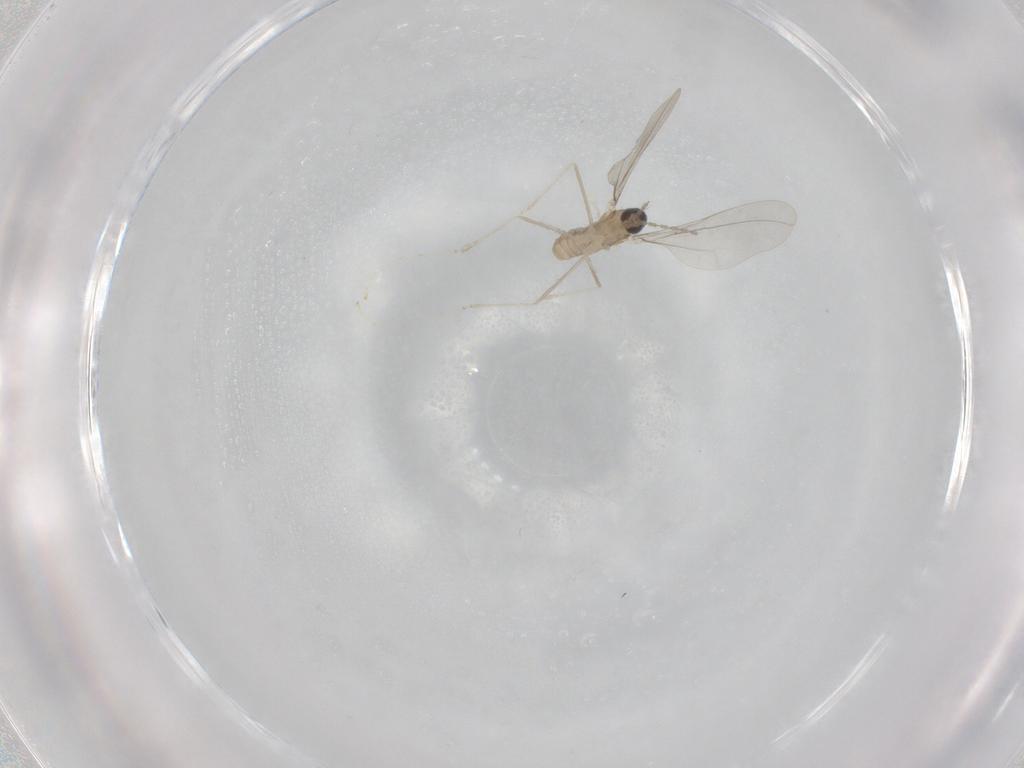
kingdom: Animalia
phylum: Arthropoda
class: Insecta
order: Diptera
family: Cecidomyiidae
